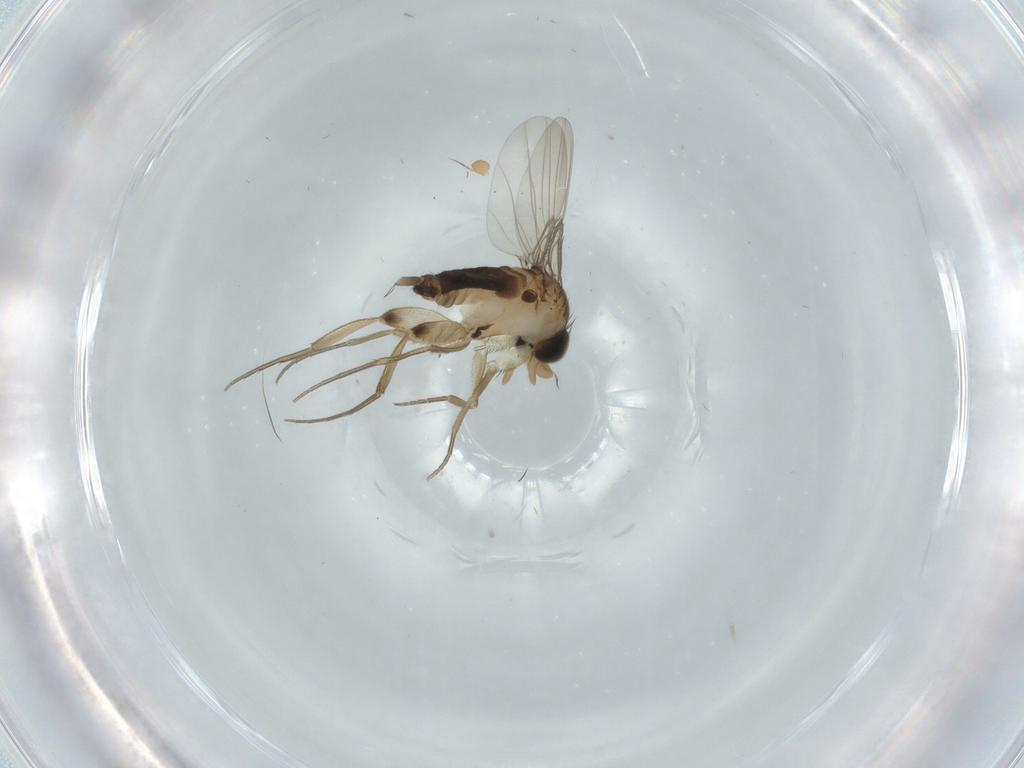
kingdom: Animalia
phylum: Arthropoda
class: Insecta
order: Diptera
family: Phoridae
